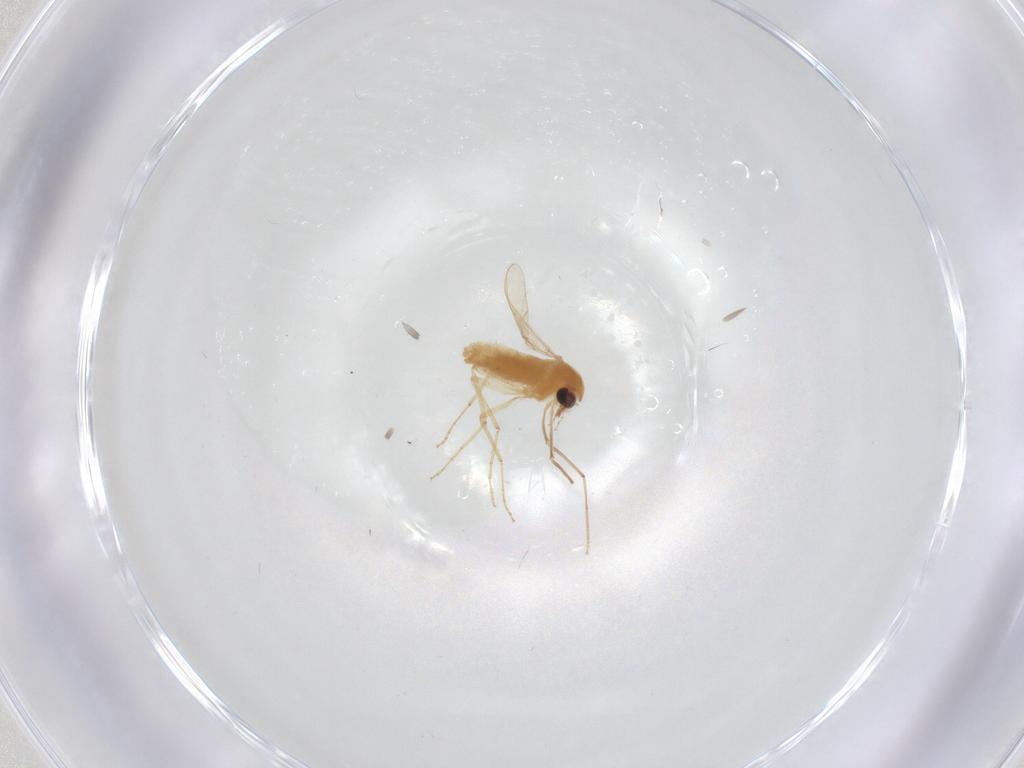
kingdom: Animalia
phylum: Arthropoda
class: Insecta
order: Diptera
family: Chironomidae
